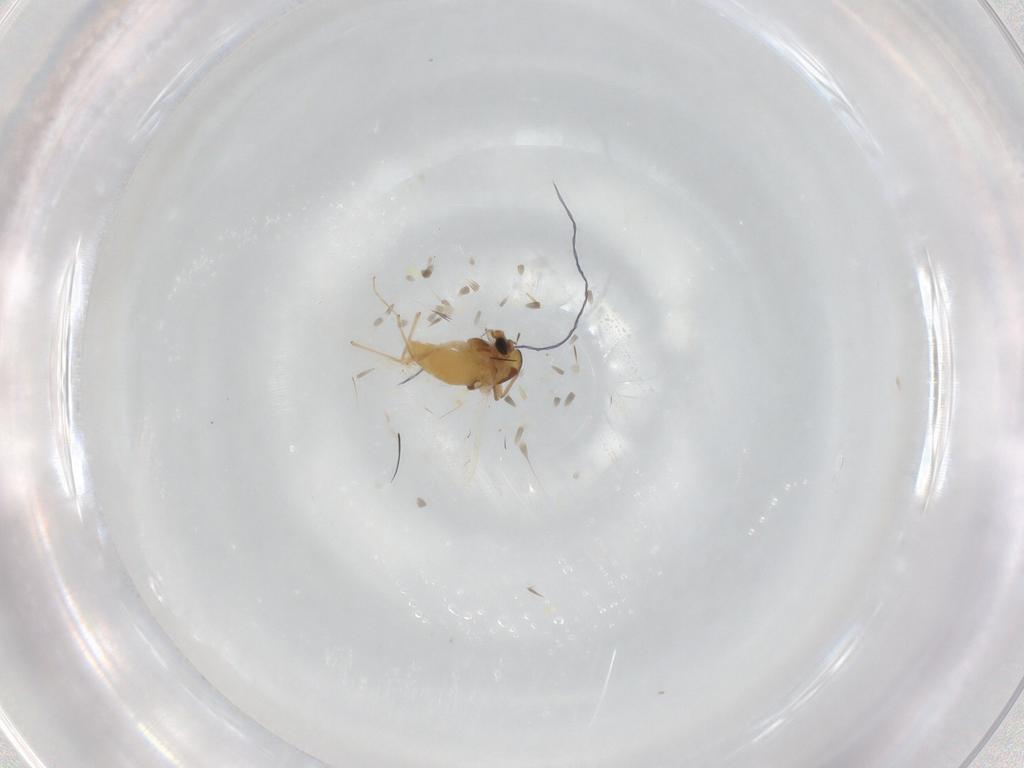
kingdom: Animalia
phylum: Arthropoda
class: Insecta
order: Diptera
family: Chironomidae
